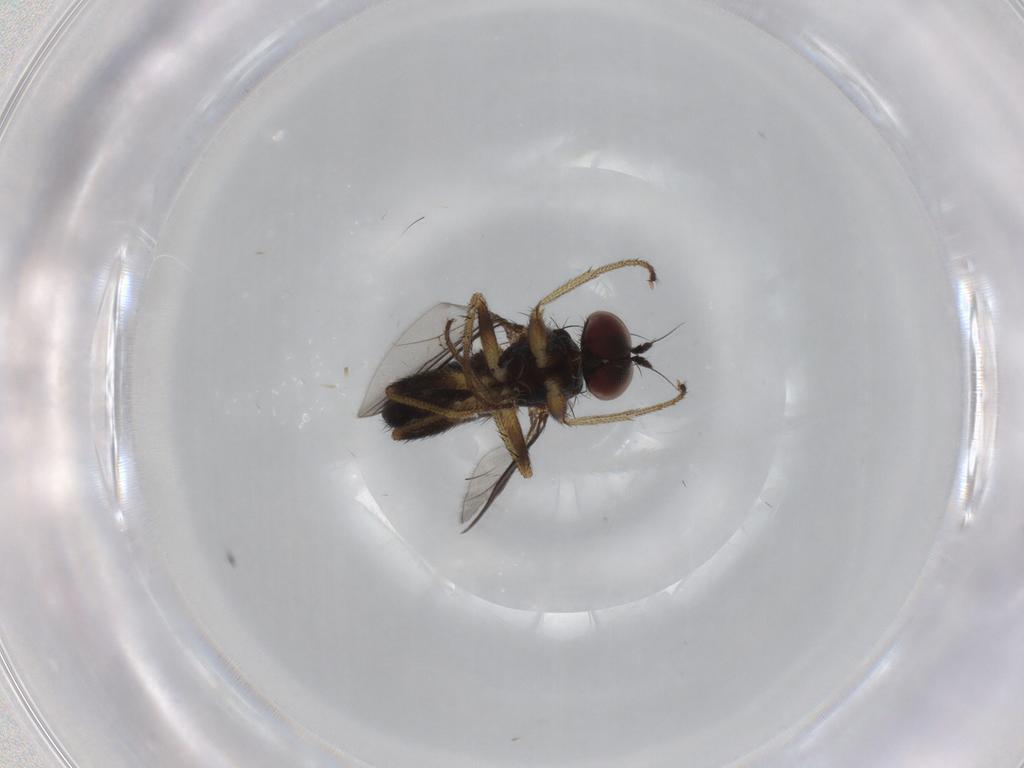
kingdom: Animalia
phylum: Arthropoda
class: Insecta
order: Diptera
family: Dolichopodidae
